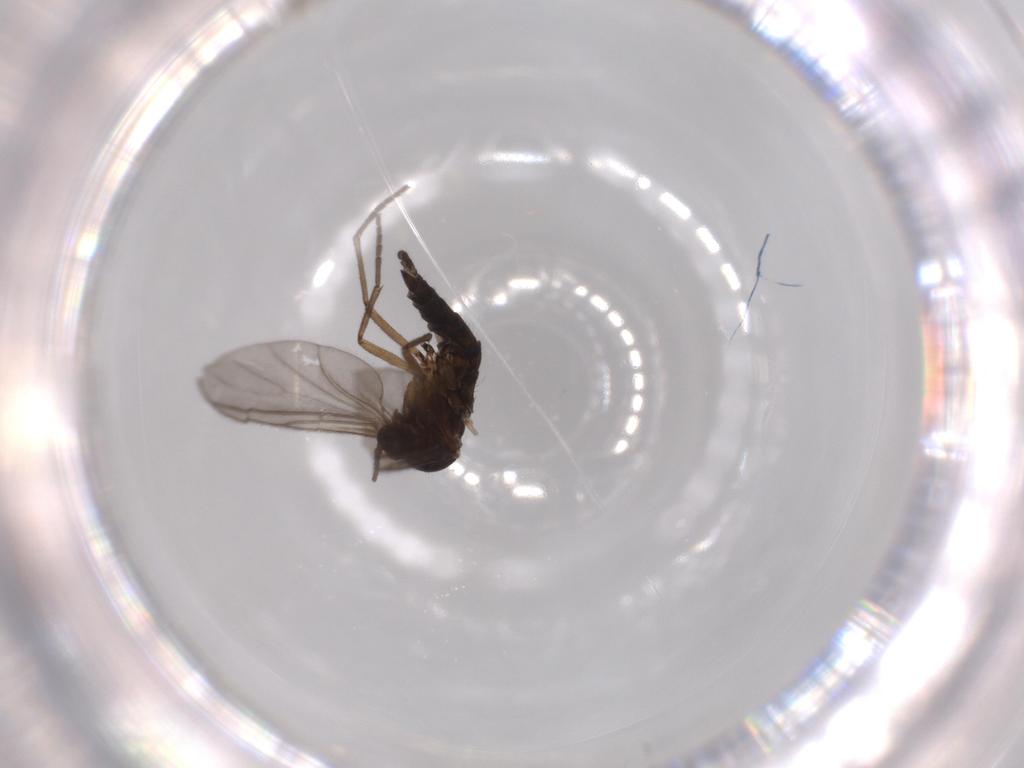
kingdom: Animalia
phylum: Arthropoda
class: Insecta
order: Diptera
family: Sciaridae
